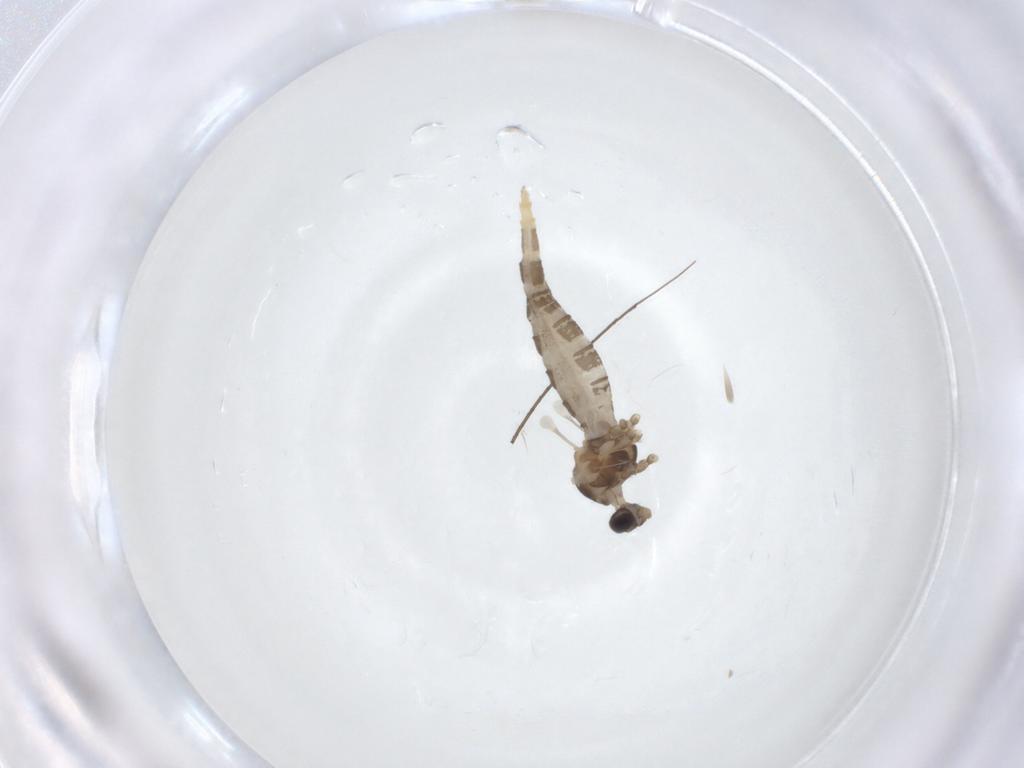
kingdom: Animalia
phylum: Arthropoda
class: Insecta
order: Diptera
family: Cecidomyiidae
